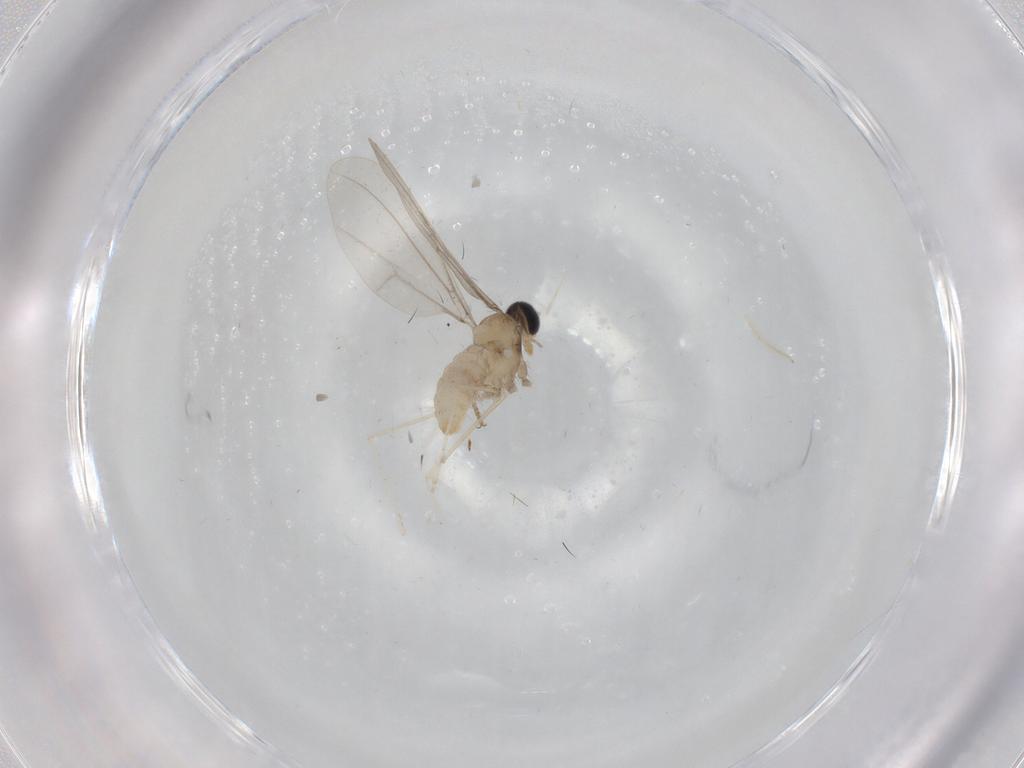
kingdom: Animalia
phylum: Arthropoda
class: Insecta
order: Diptera
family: Cecidomyiidae
